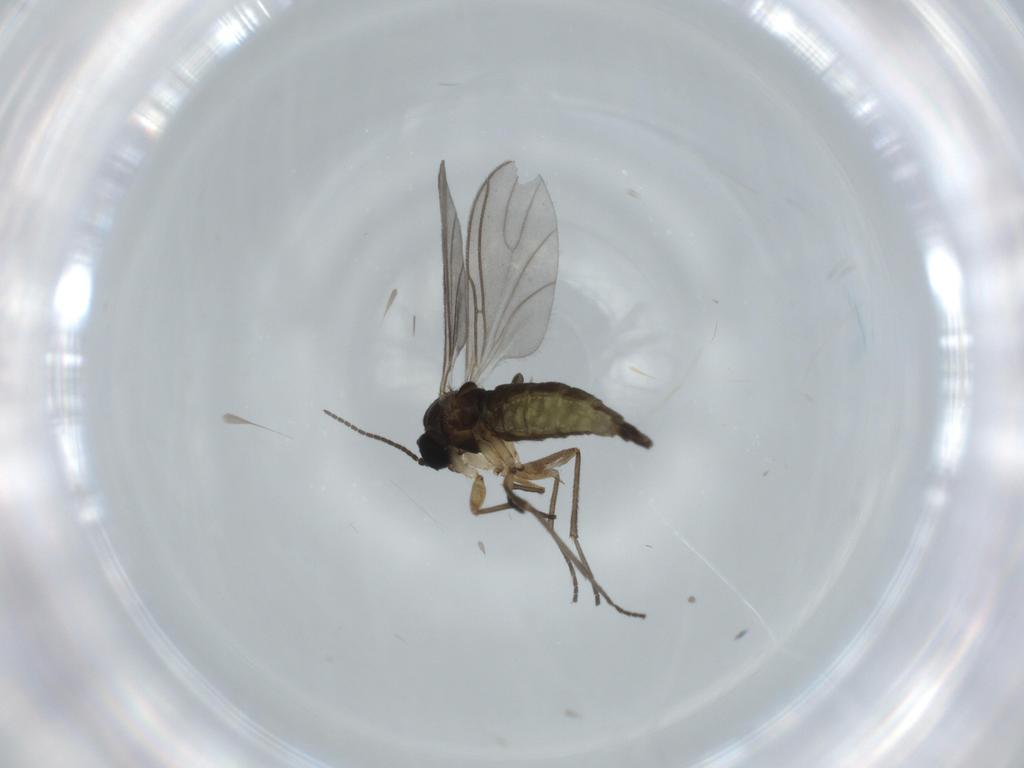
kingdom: Animalia
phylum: Arthropoda
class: Insecta
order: Diptera
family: Sciaridae
